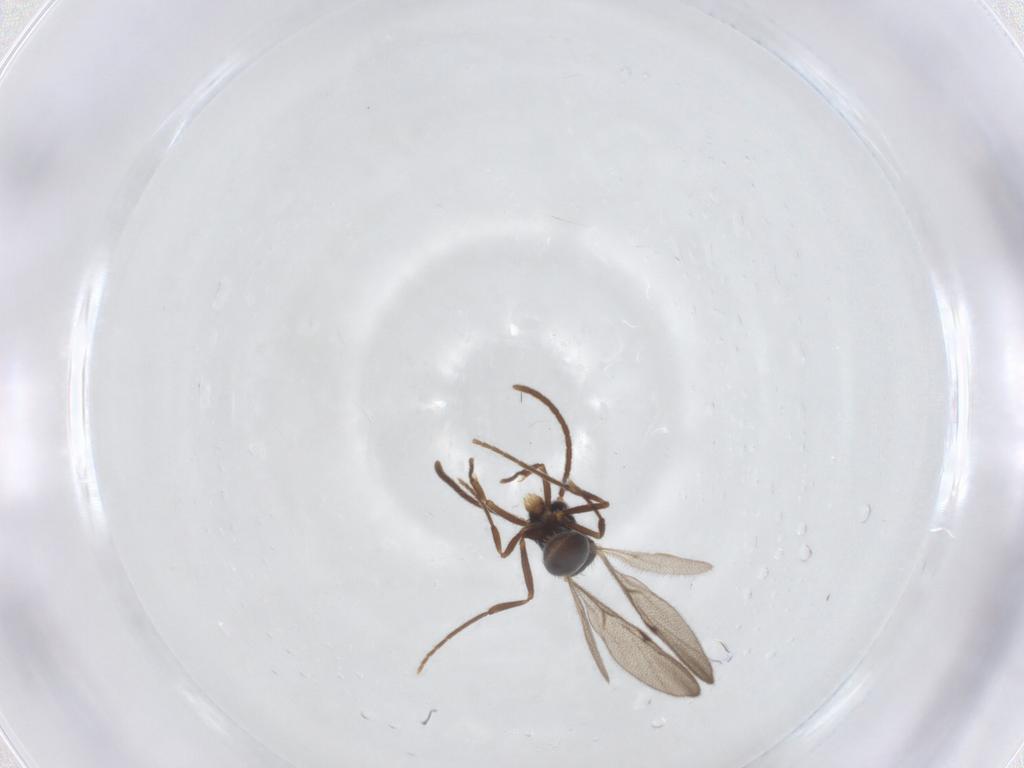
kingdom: Animalia
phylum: Arthropoda
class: Insecta
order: Hymenoptera
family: Formicidae
